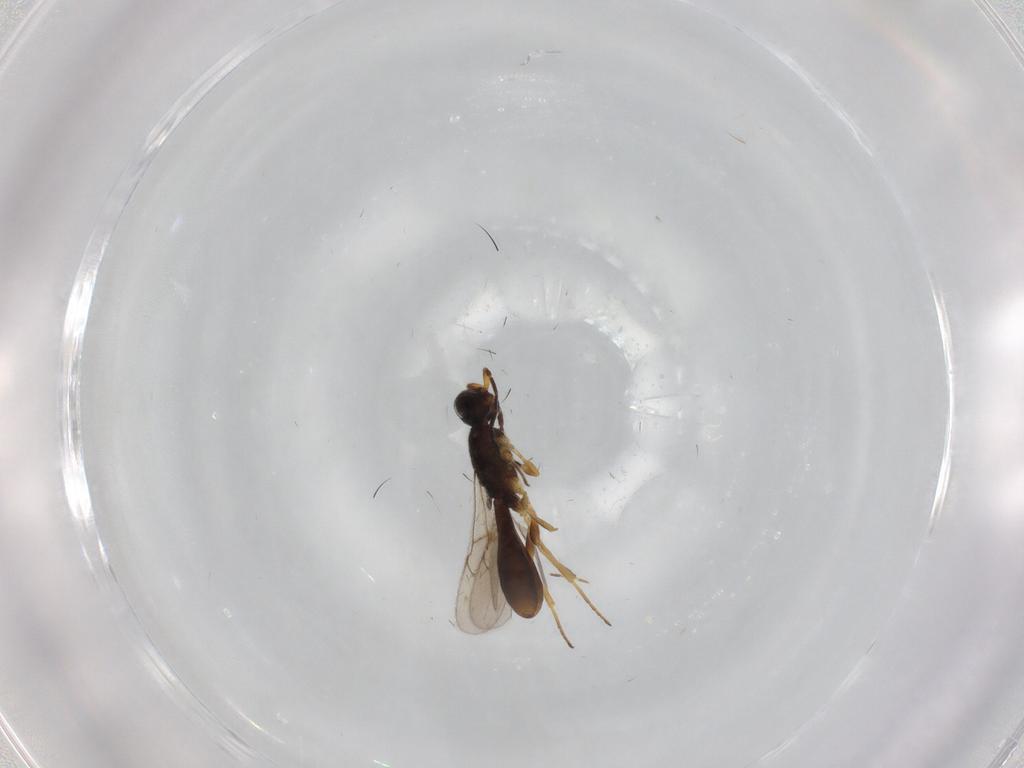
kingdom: Animalia
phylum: Arthropoda
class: Insecta
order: Hymenoptera
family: Scelionidae
